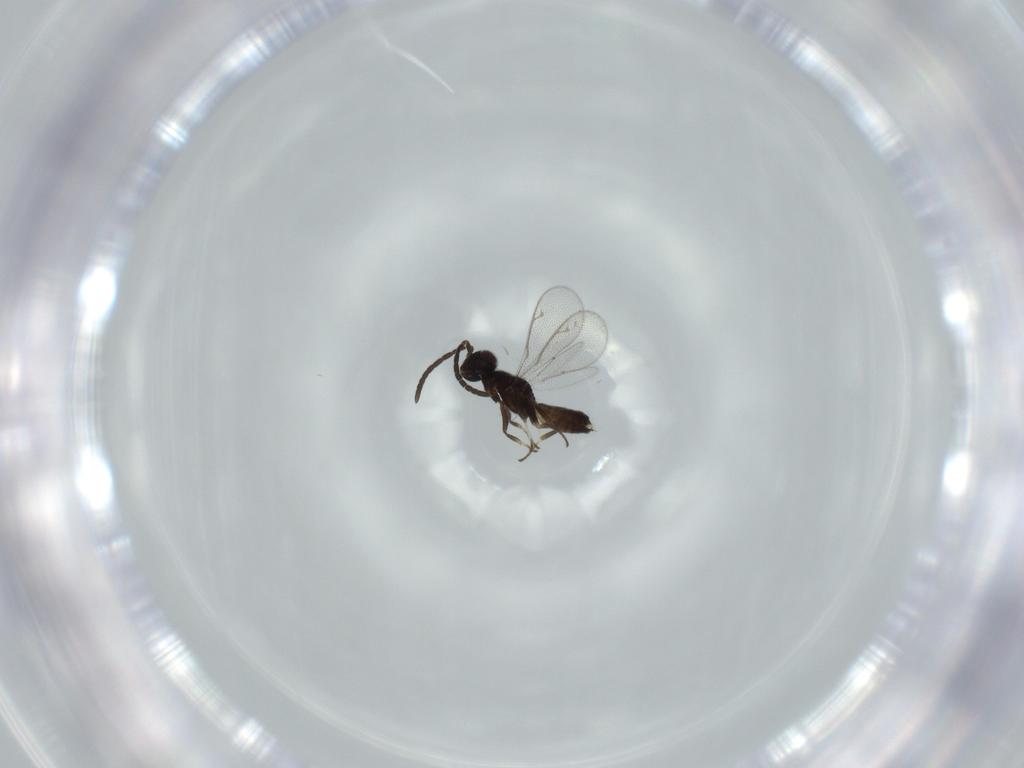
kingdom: Animalia
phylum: Arthropoda
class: Insecta
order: Hymenoptera
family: Eupelmidae
